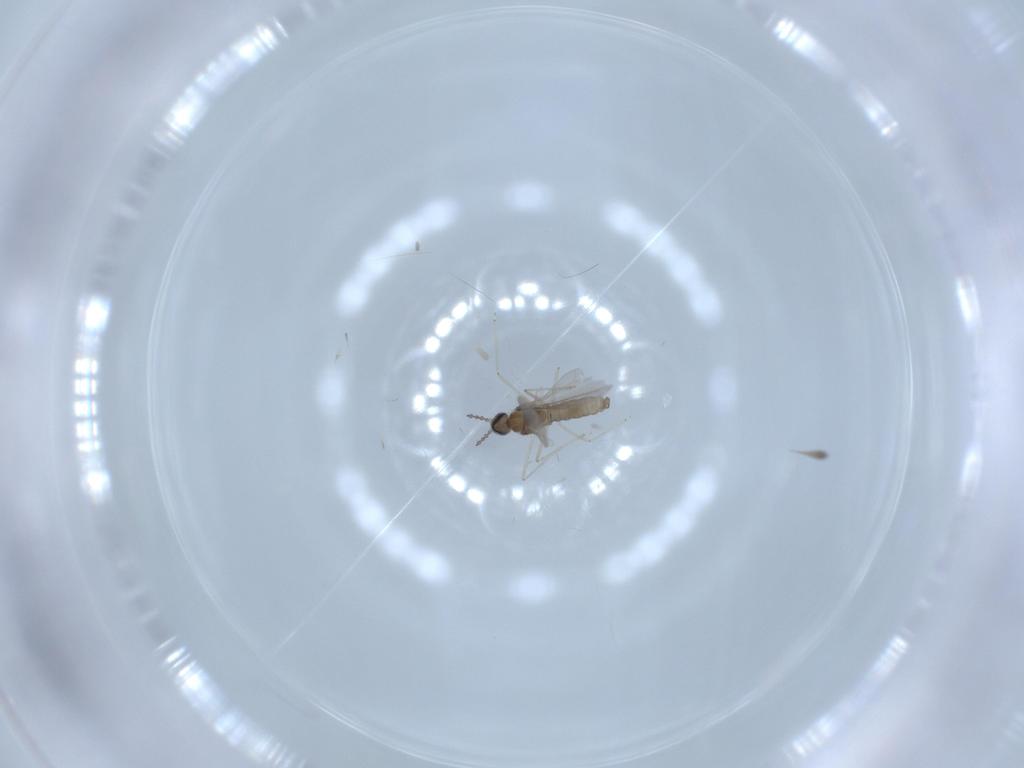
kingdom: Animalia
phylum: Arthropoda
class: Insecta
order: Diptera
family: Cecidomyiidae
